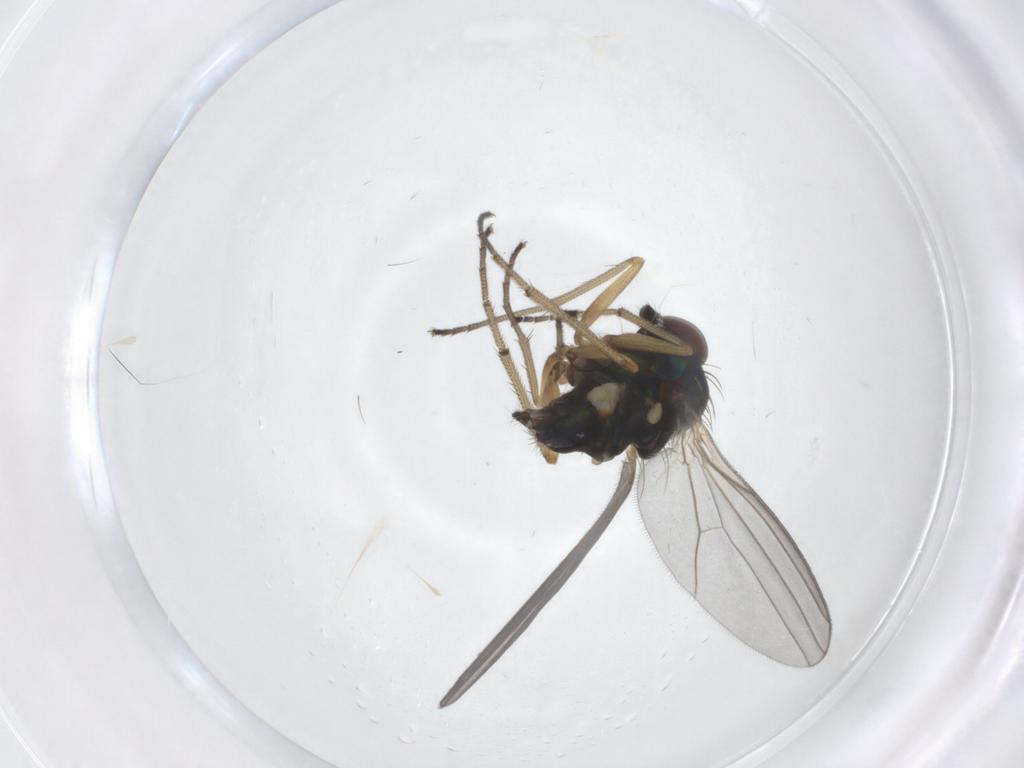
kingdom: Animalia
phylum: Arthropoda
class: Insecta
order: Diptera
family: Dolichopodidae
